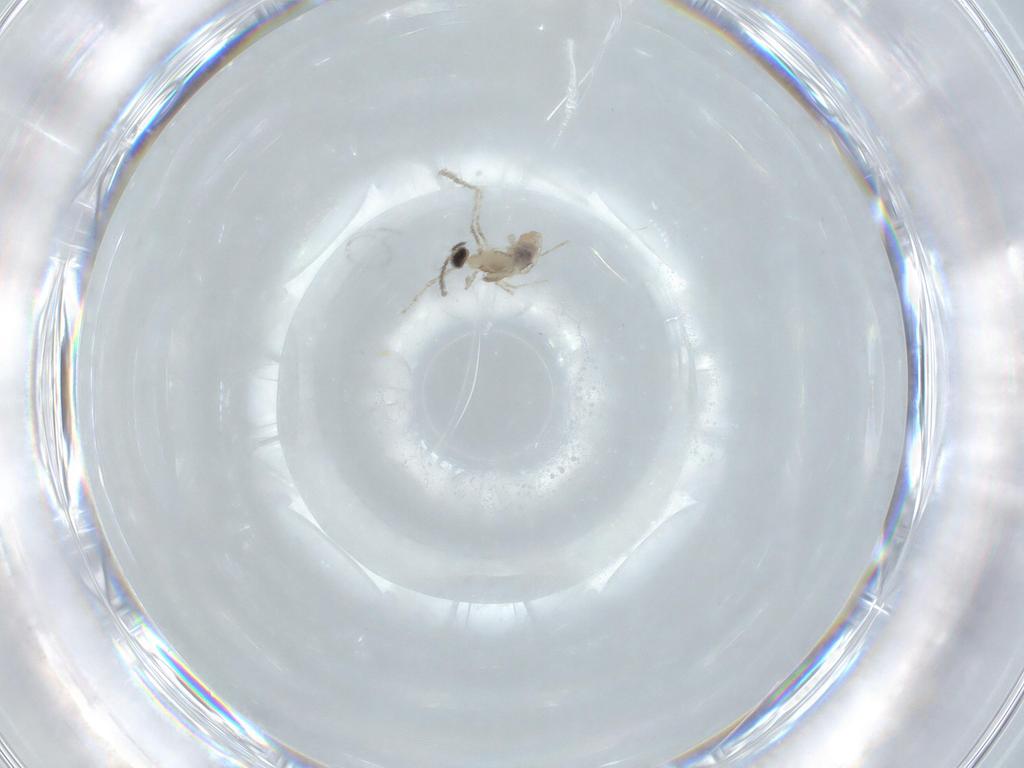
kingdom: Animalia
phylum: Arthropoda
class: Insecta
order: Diptera
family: Cecidomyiidae
